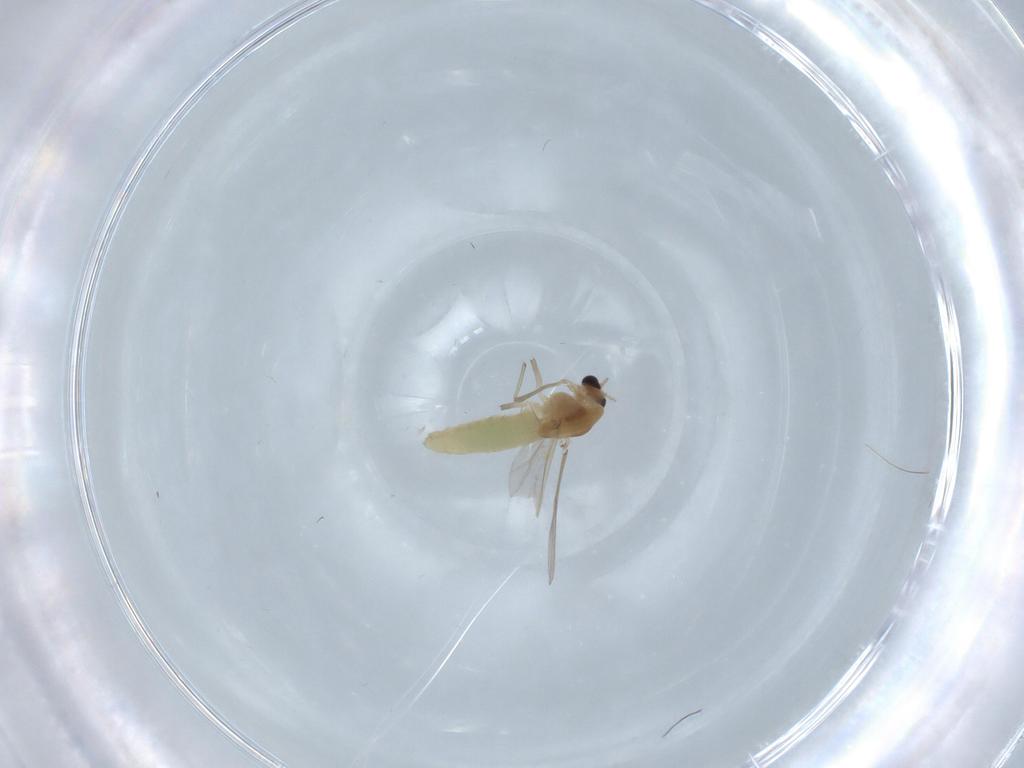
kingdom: Animalia
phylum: Arthropoda
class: Insecta
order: Diptera
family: Chironomidae
